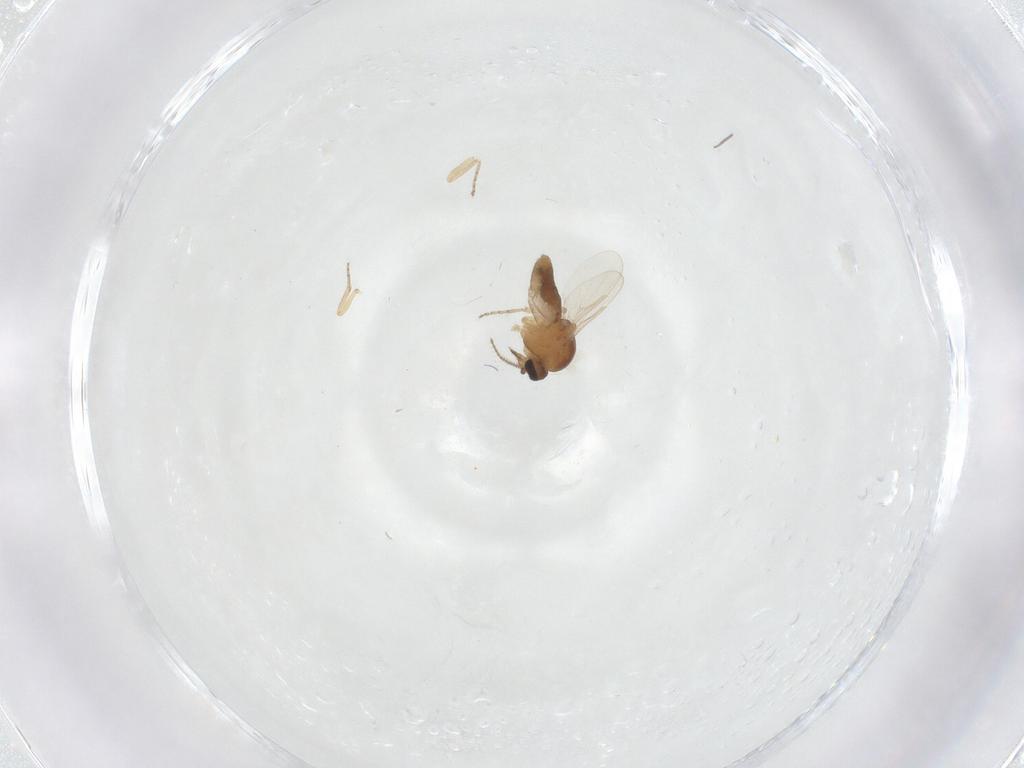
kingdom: Animalia
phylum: Arthropoda
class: Insecta
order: Diptera
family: Ceratopogonidae
